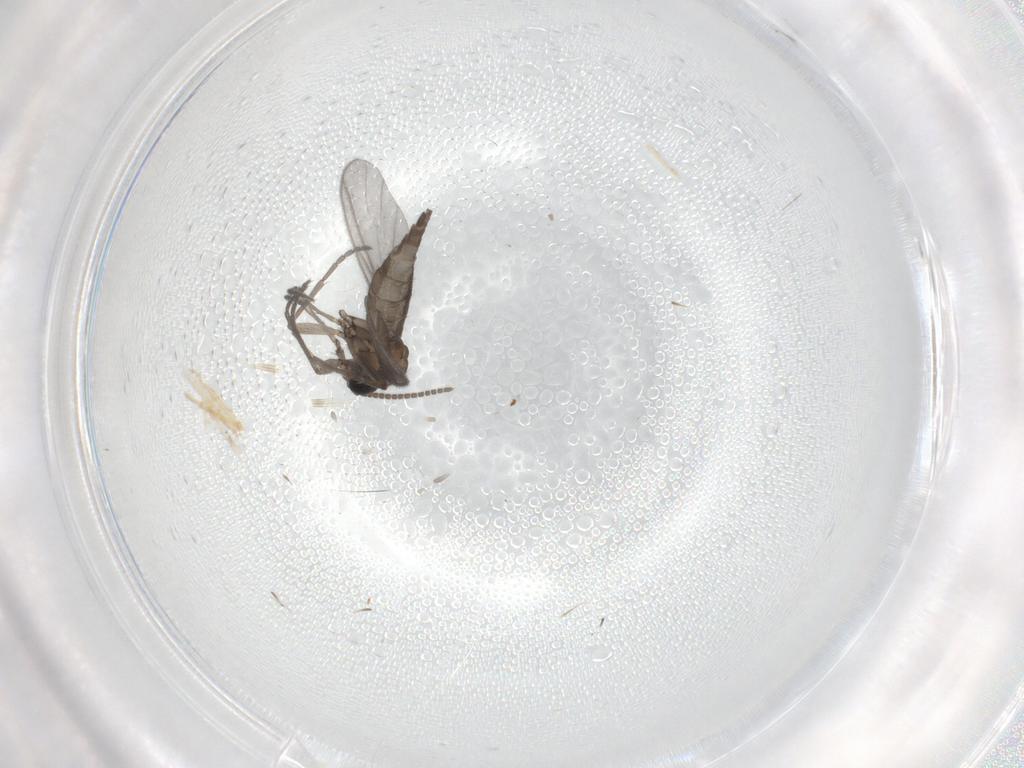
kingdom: Animalia
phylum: Arthropoda
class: Insecta
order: Diptera
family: Sciaridae
